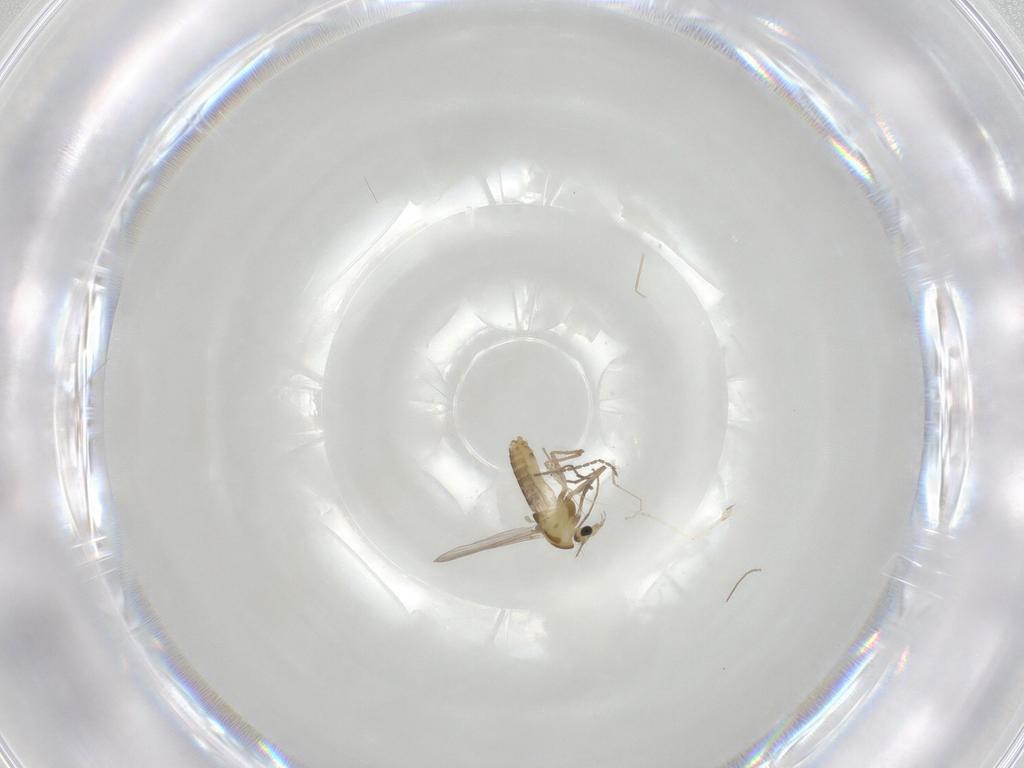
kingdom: Animalia
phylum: Arthropoda
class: Insecta
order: Diptera
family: Chironomidae
